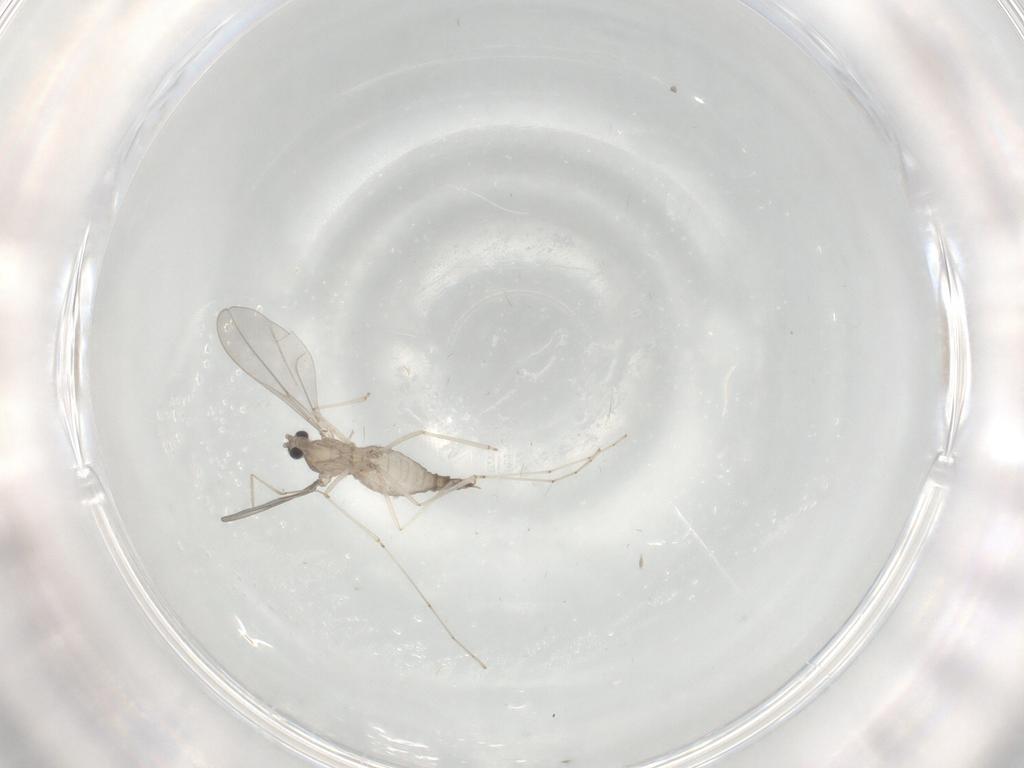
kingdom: Animalia
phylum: Arthropoda
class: Insecta
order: Diptera
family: Cecidomyiidae
